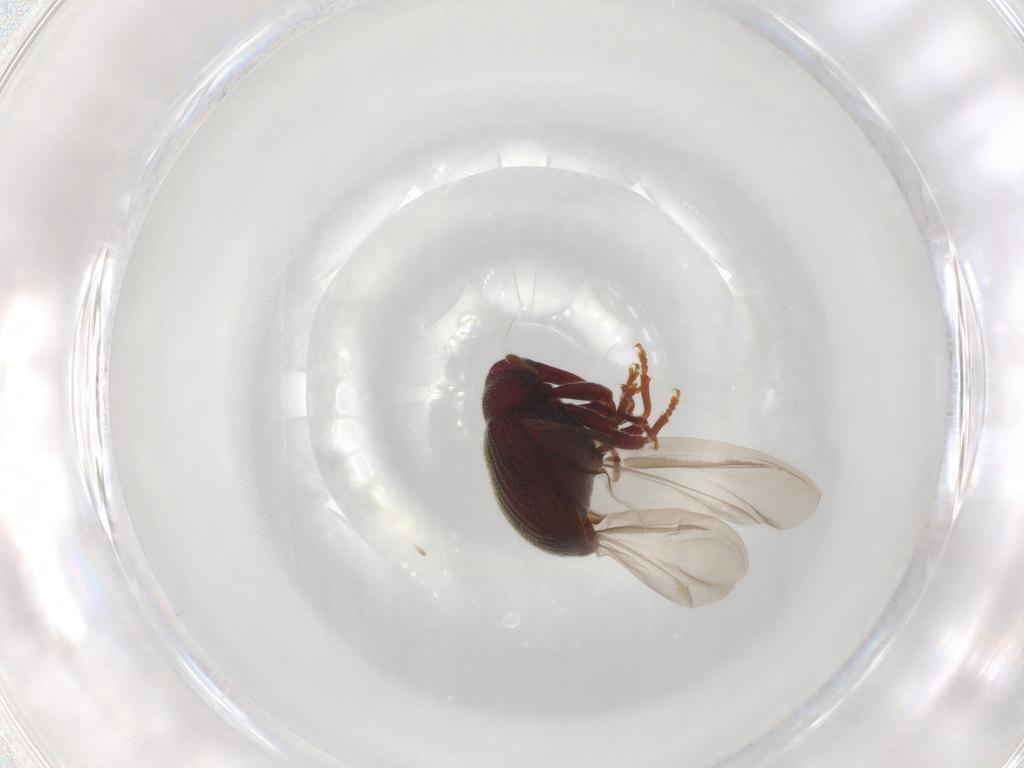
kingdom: Animalia
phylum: Arthropoda
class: Insecta
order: Coleoptera
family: Curculionidae
